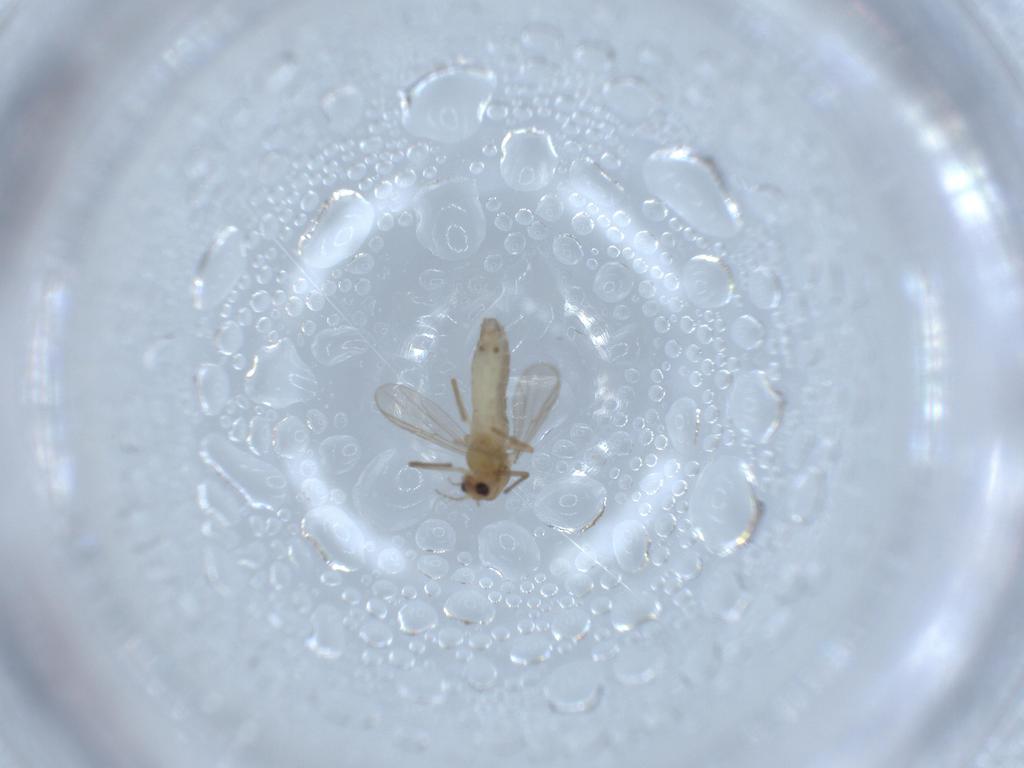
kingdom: Animalia
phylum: Arthropoda
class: Insecta
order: Diptera
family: Chironomidae
